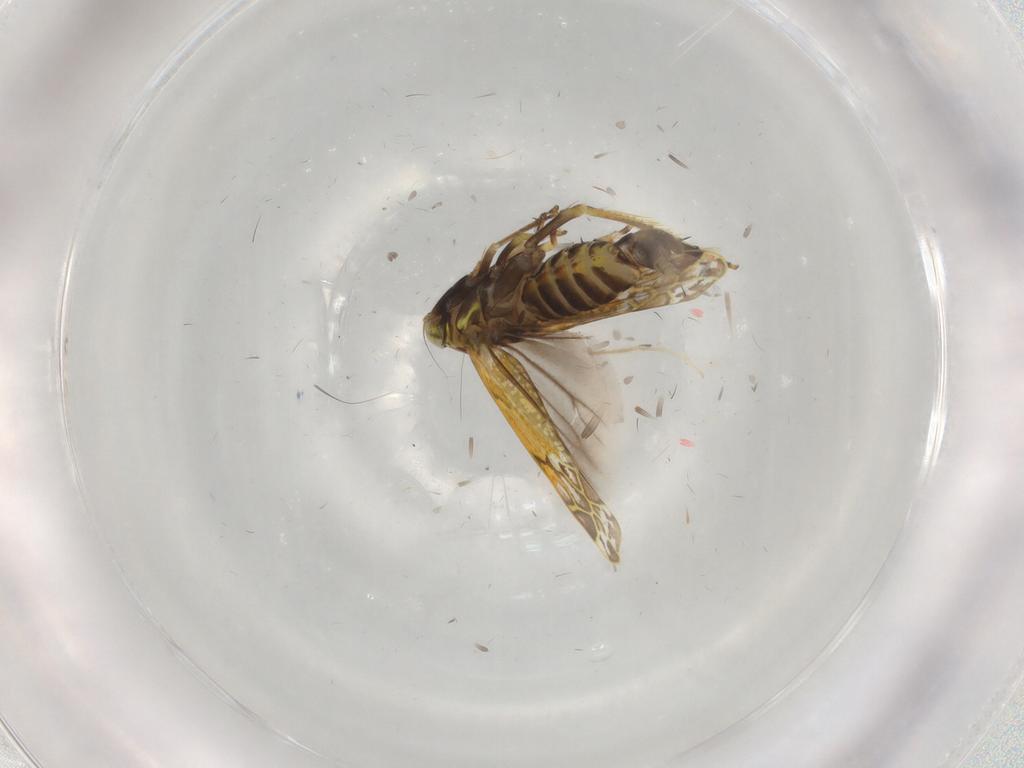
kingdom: Animalia
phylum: Arthropoda
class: Insecta
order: Hemiptera
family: Cicadellidae
